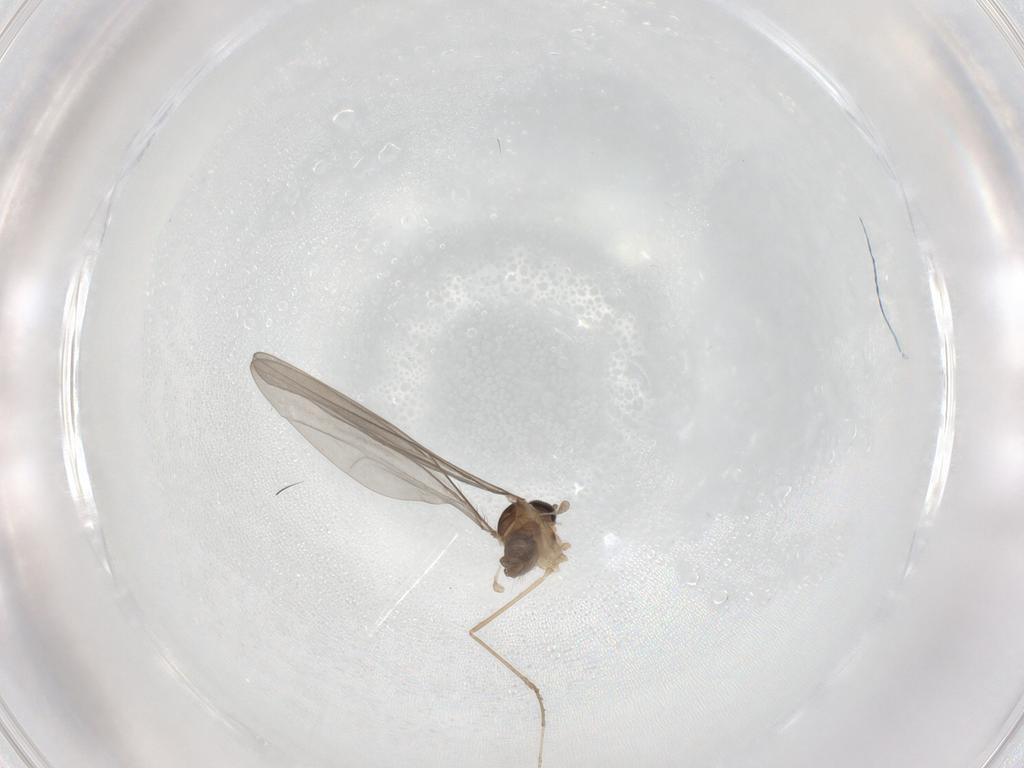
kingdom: Animalia
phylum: Arthropoda
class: Insecta
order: Diptera
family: Cecidomyiidae
